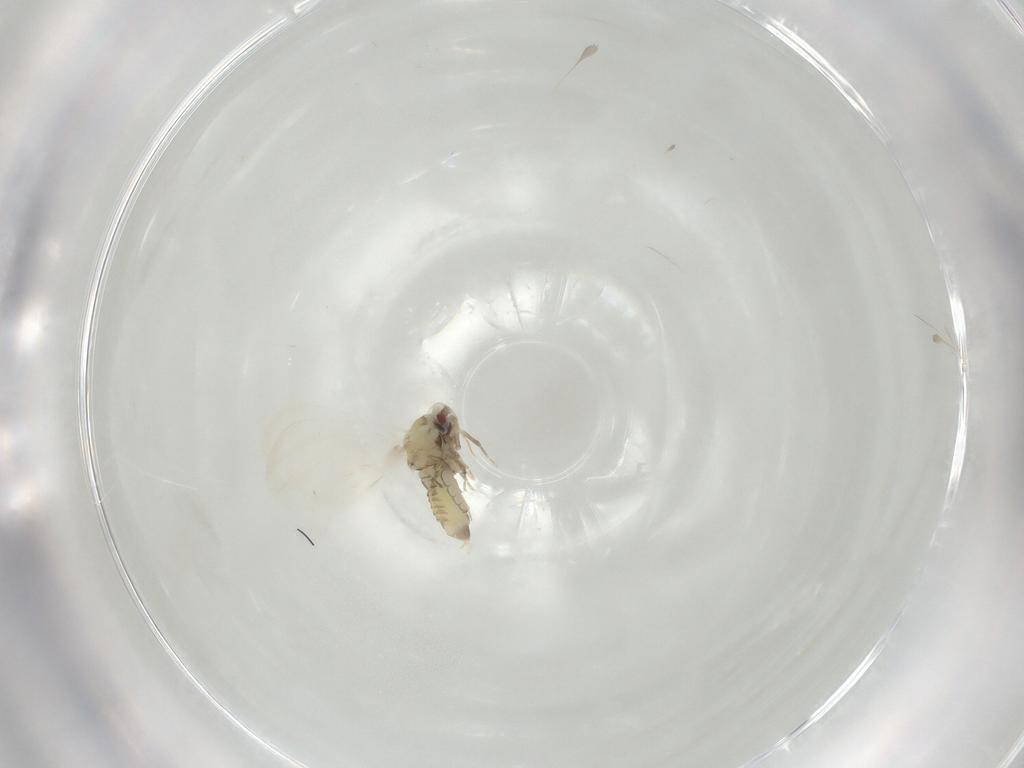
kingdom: Animalia
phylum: Arthropoda
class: Insecta
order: Hemiptera
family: Aleyrodidae
